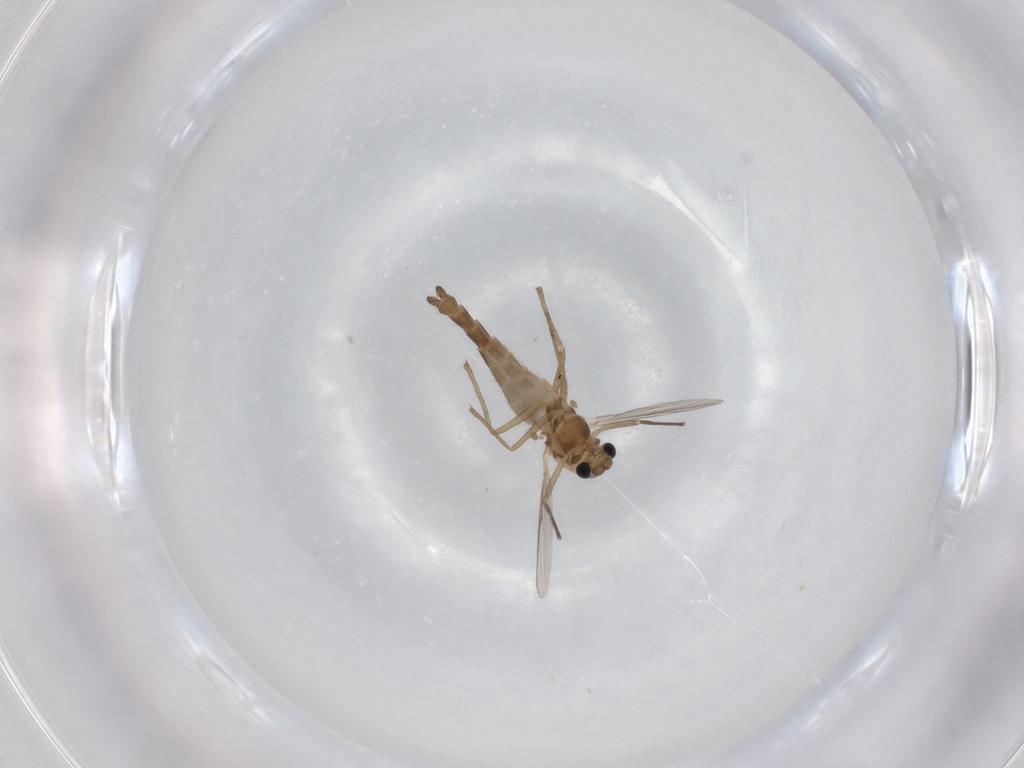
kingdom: Animalia
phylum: Arthropoda
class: Insecta
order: Diptera
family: Chironomidae
